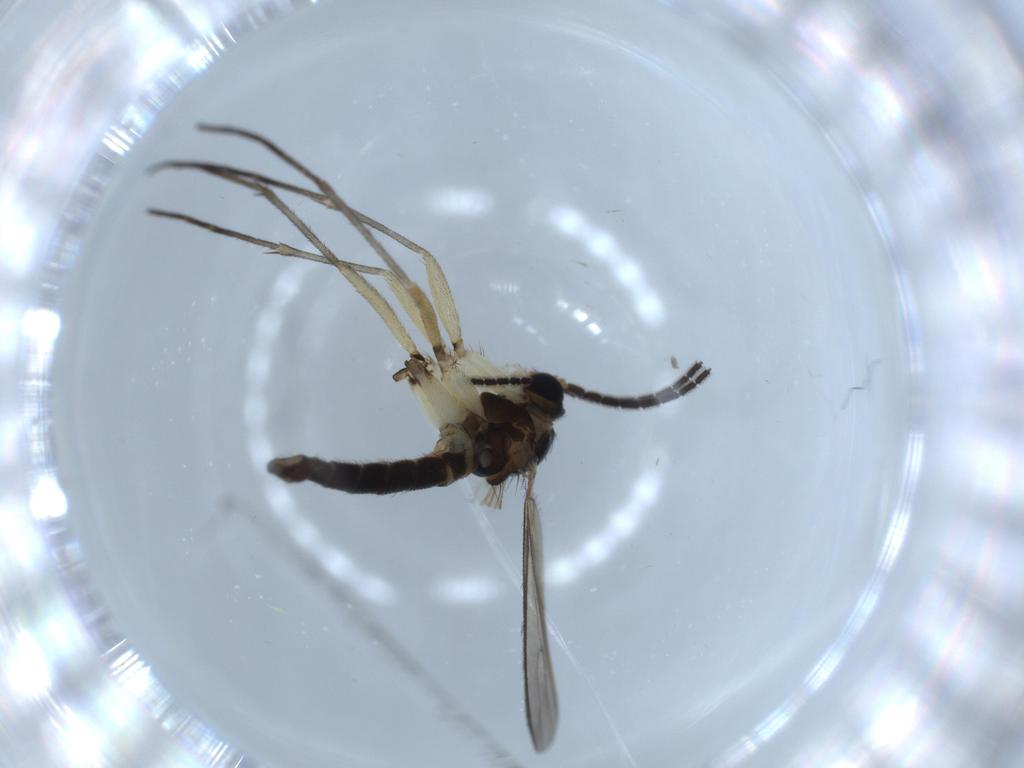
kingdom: Animalia
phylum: Arthropoda
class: Insecta
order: Diptera
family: Sciaridae
